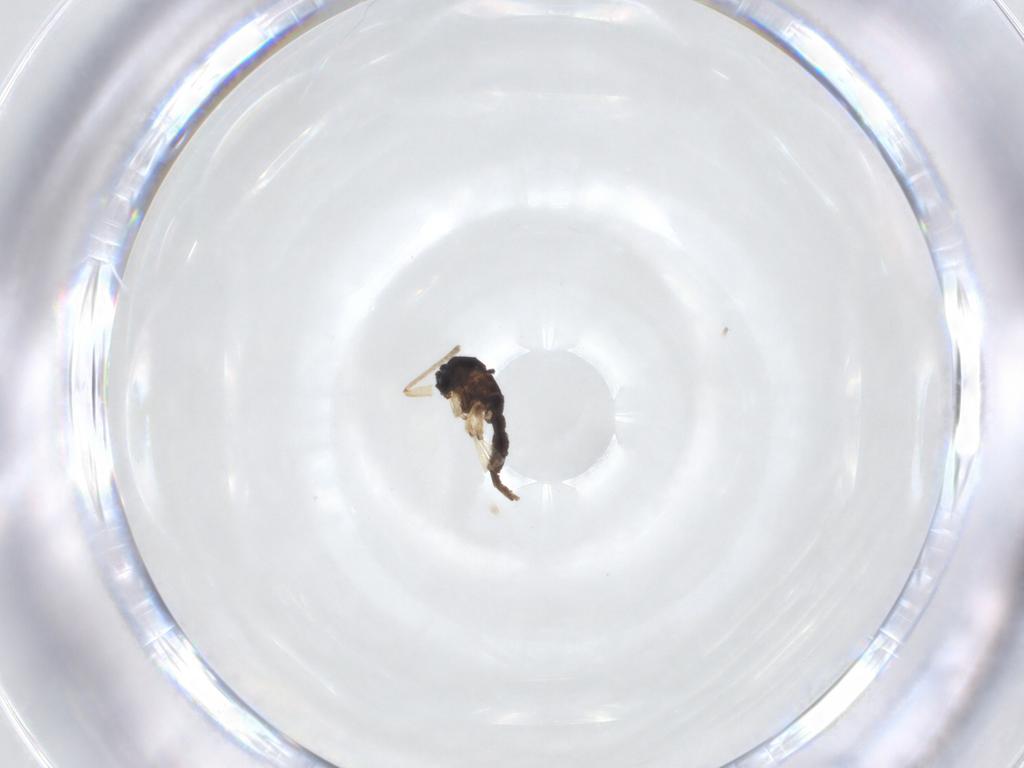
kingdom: Animalia
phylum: Arthropoda
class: Insecta
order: Diptera
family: Sciaridae
